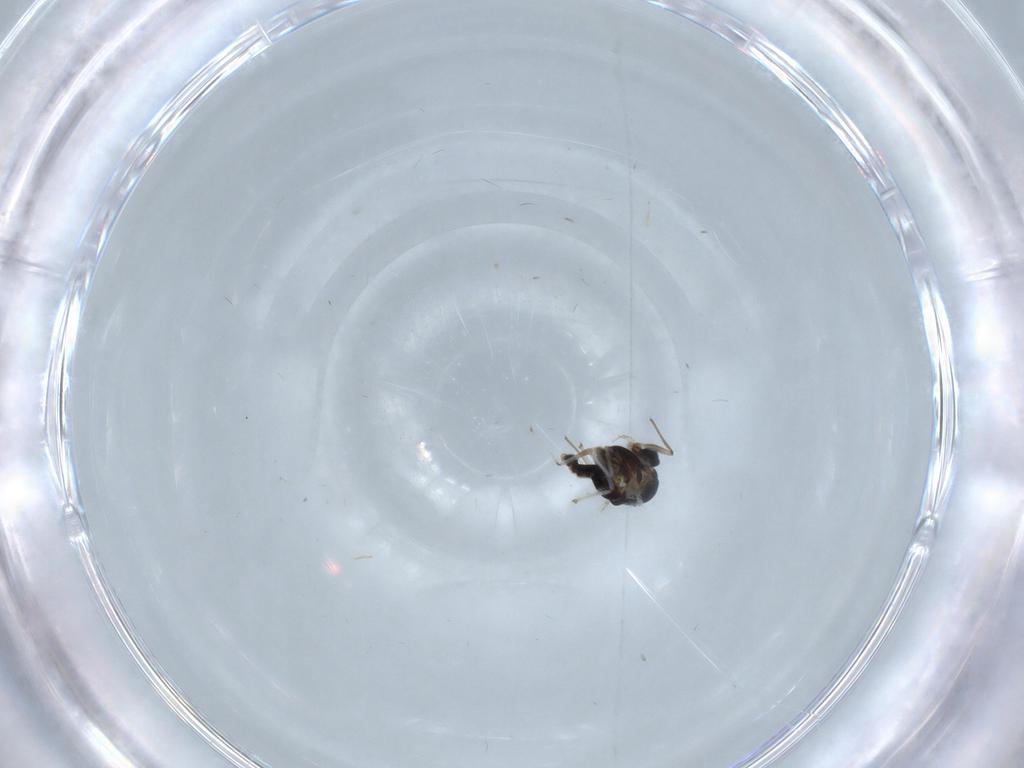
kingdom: Animalia
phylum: Arthropoda
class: Insecta
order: Diptera
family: Chironomidae
